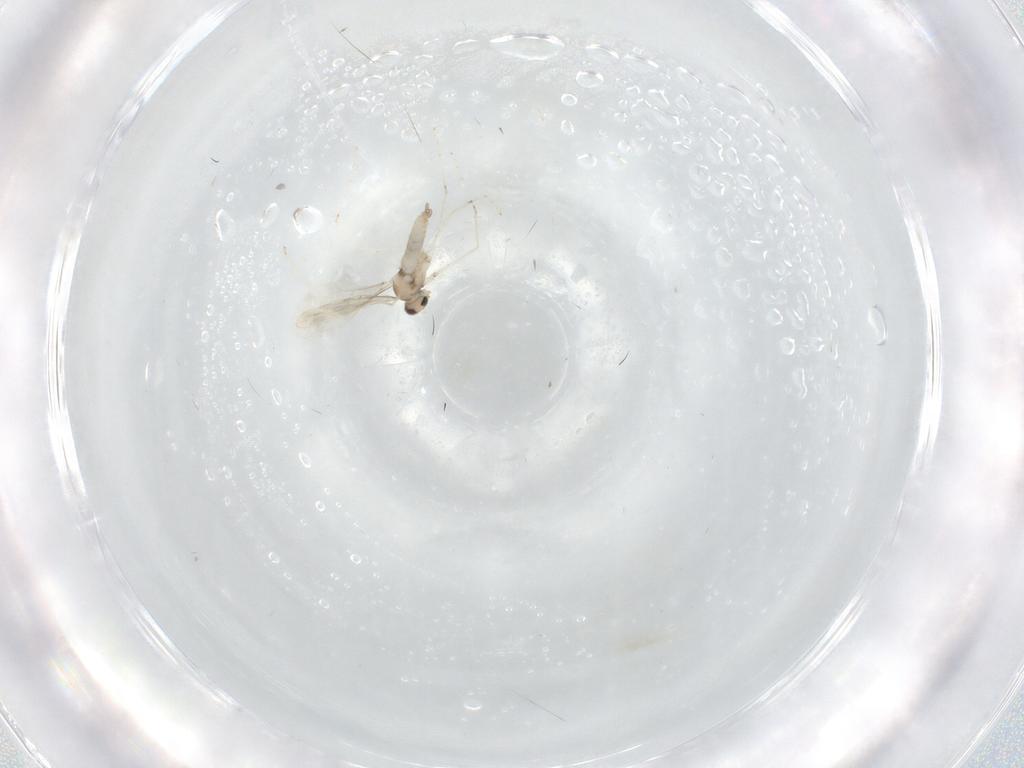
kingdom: Animalia
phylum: Arthropoda
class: Insecta
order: Diptera
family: Cecidomyiidae
